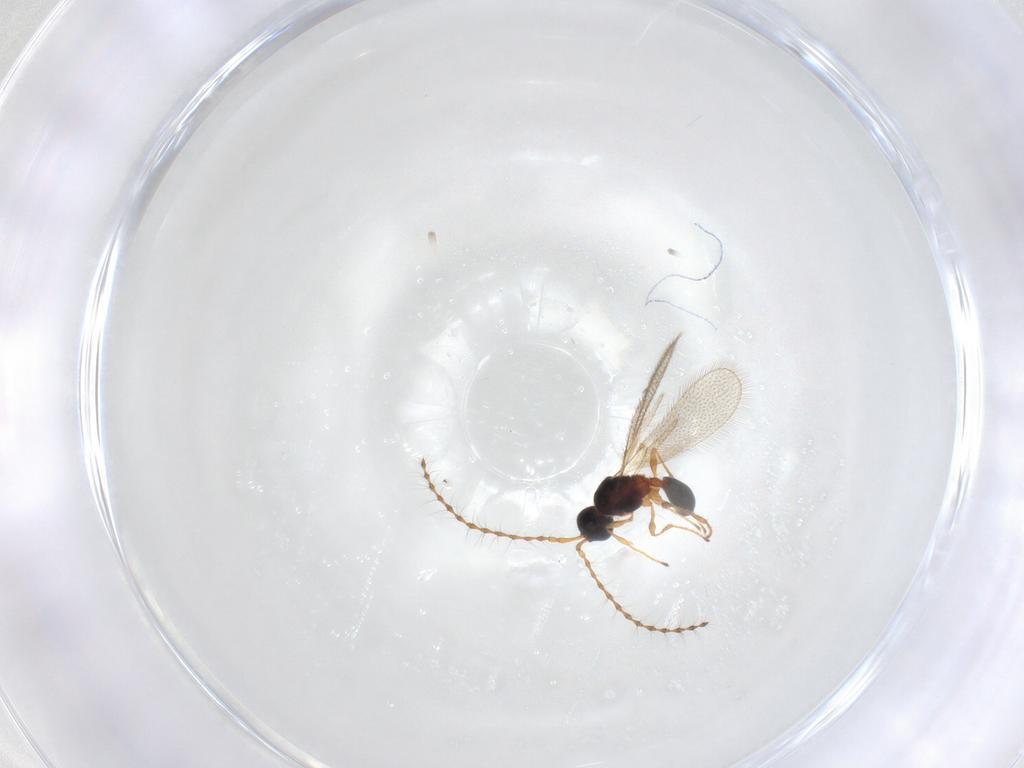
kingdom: Animalia
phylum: Arthropoda
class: Insecta
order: Hymenoptera
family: Diapriidae
